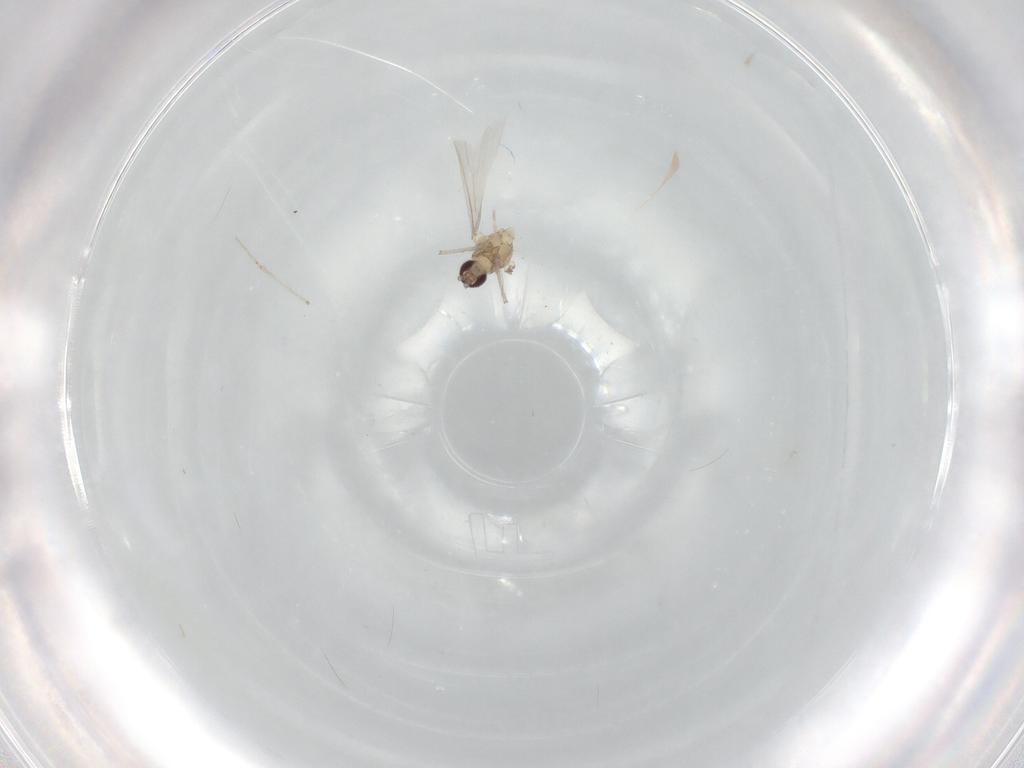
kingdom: Animalia
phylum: Arthropoda
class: Insecta
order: Diptera
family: Cecidomyiidae
